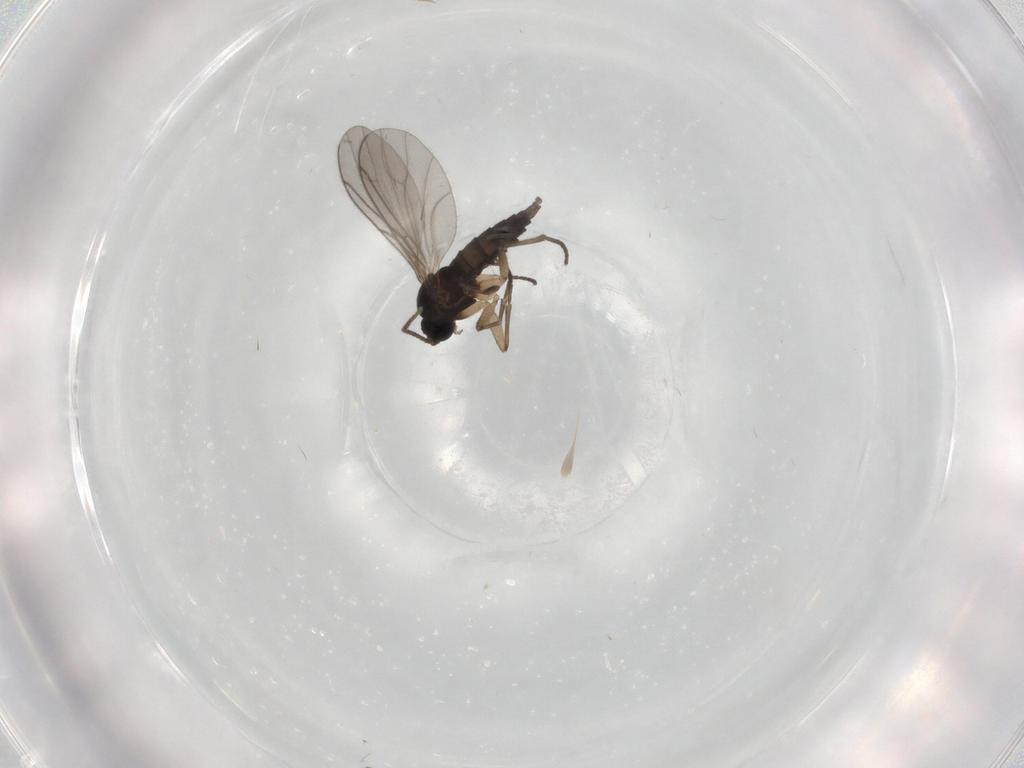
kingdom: Animalia
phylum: Arthropoda
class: Insecta
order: Diptera
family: Sciaridae
